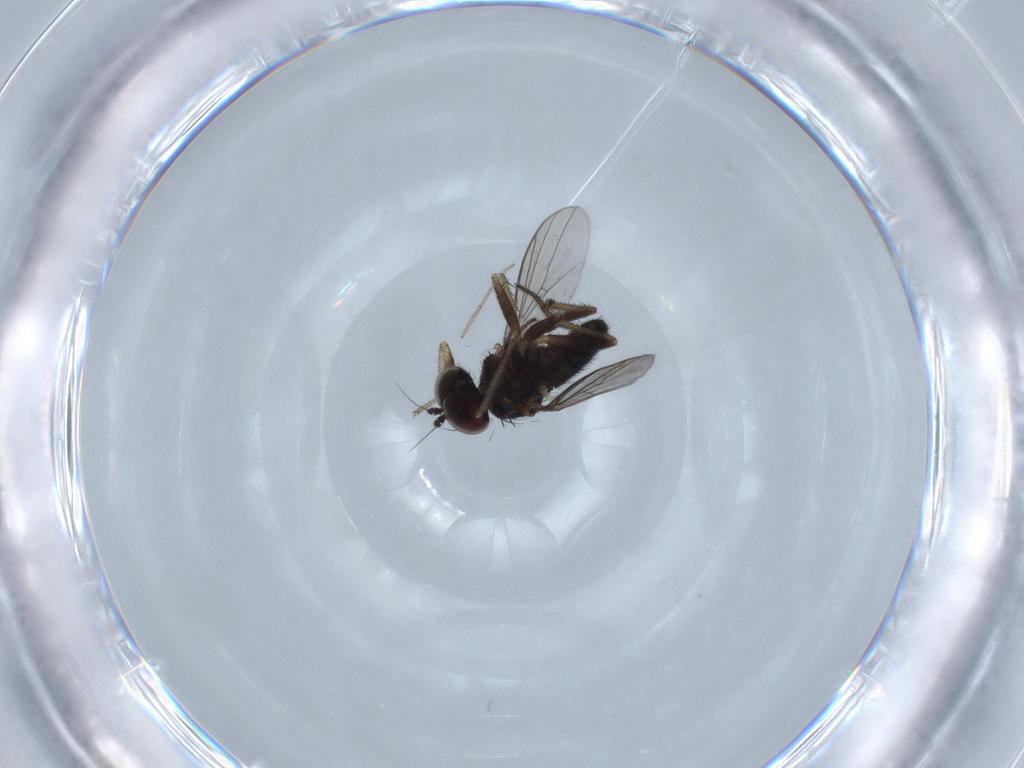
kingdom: Animalia
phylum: Arthropoda
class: Insecta
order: Diptera
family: Dolichopodidae
